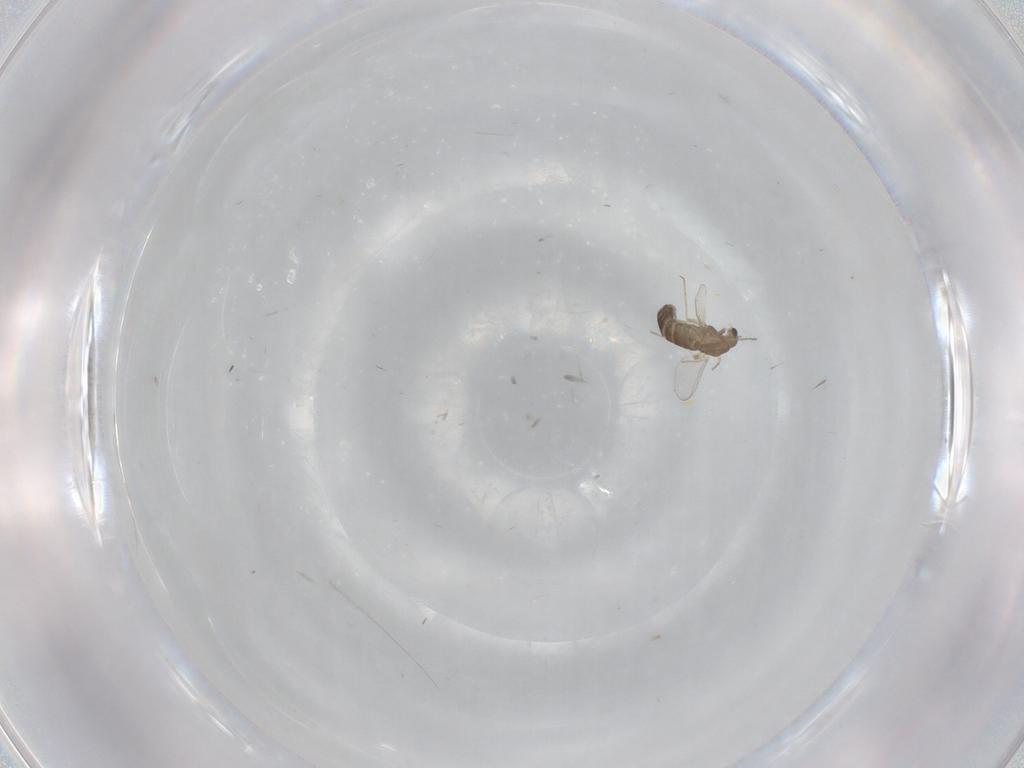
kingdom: Animalia
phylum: Arthropoda
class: Insecta
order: Diptera
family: Chironomidae
